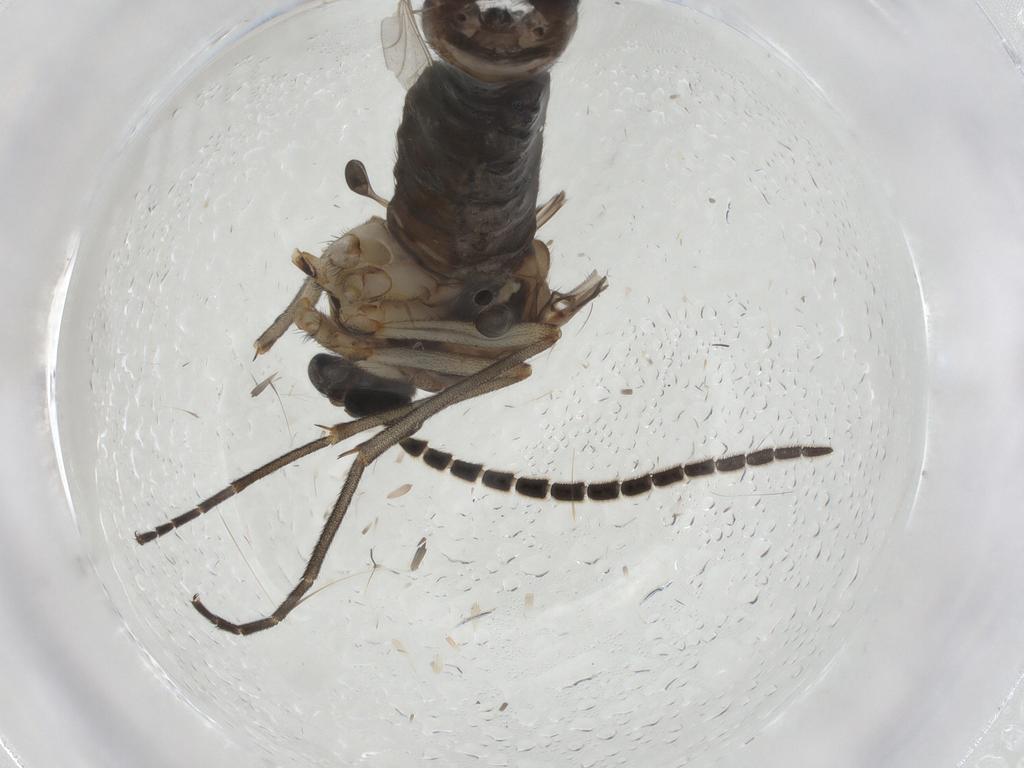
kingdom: Animalia
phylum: Arthropoda
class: Insecta
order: Diptera
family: Sciaridae
